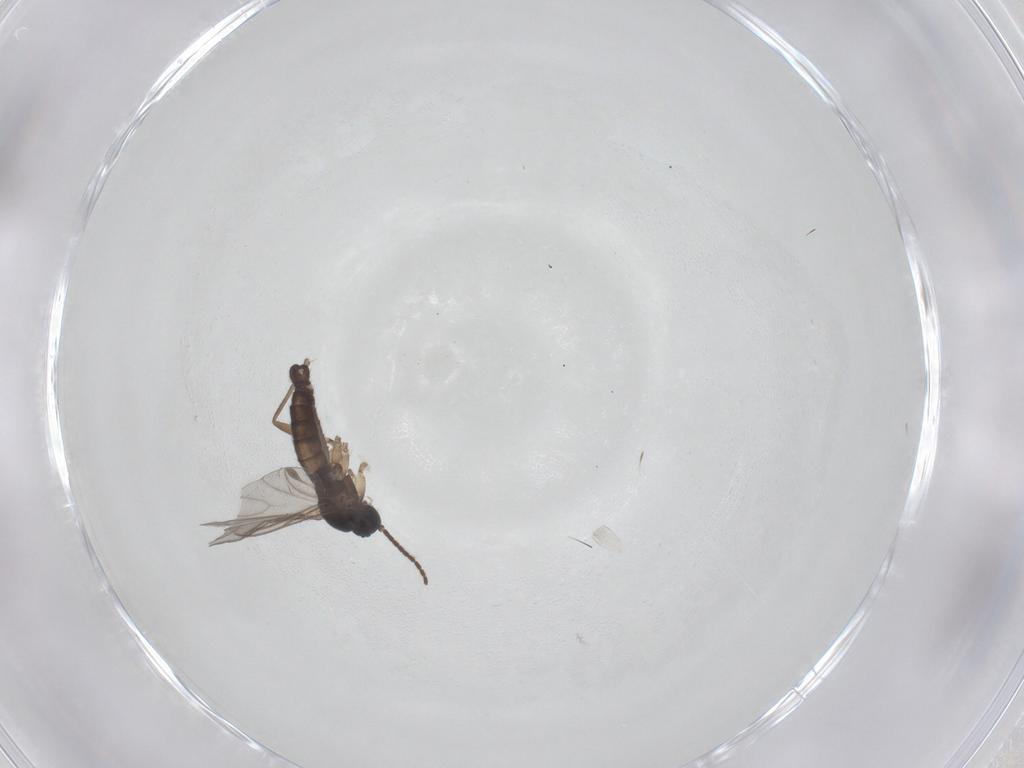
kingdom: Animalia
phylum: Arthropoda
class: Insecta
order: Diptera
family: Sciaridae
